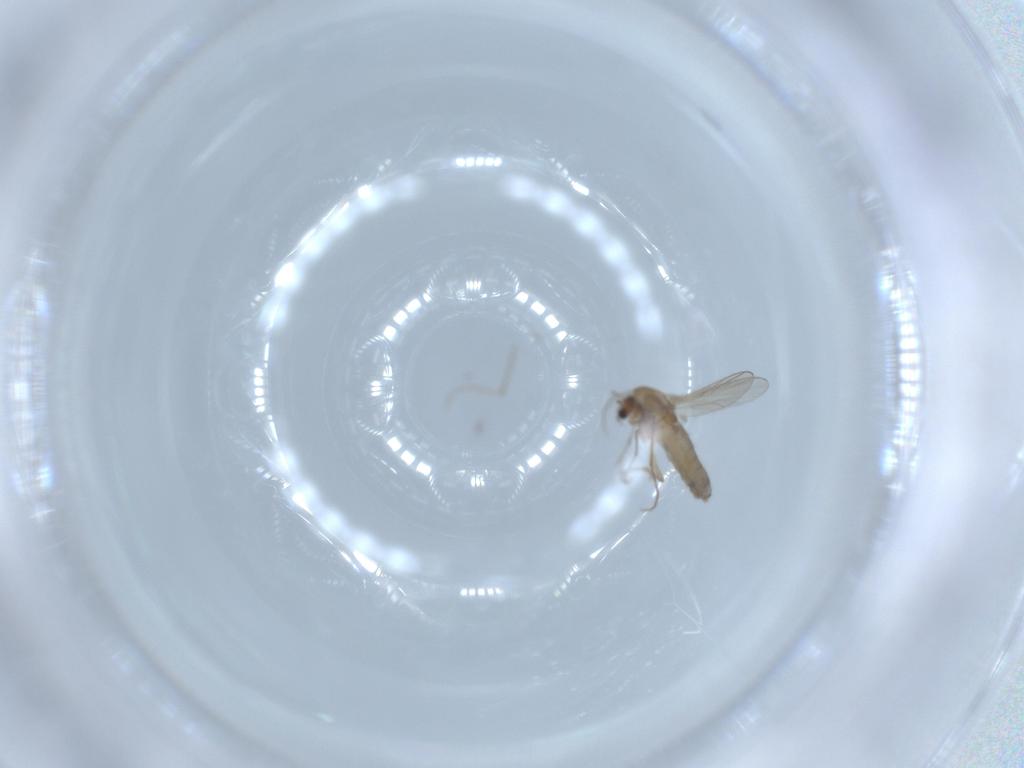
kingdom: Animalia
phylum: Arthropoda
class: Insecta
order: Diptera
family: Chironomidae
